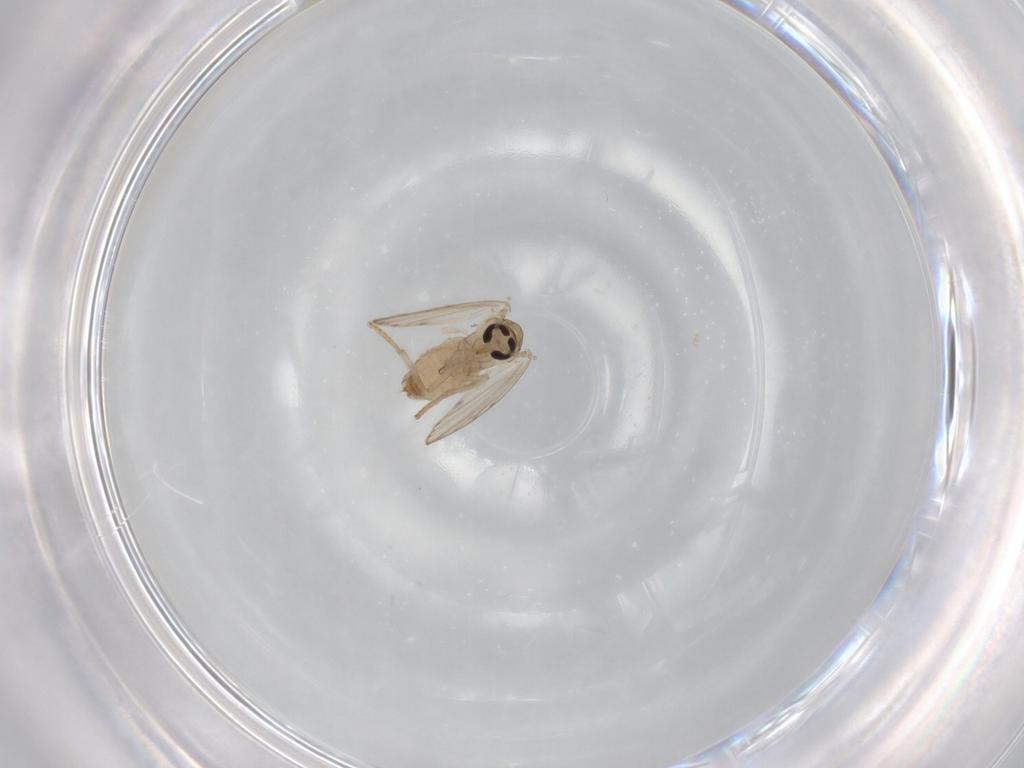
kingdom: Animalia
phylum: Arthropoda
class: Insecta
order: Diptera
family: Psychodidae
